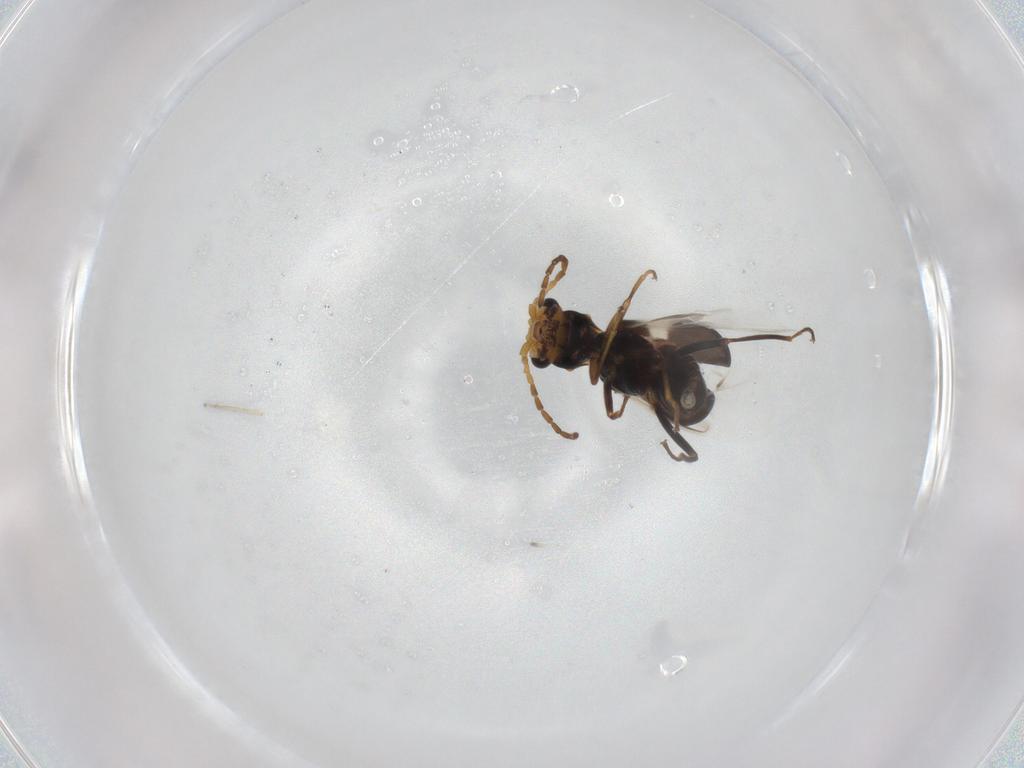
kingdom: Animalia
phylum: Arthropoda
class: Insecta
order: Coleoptera
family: Melyridae
